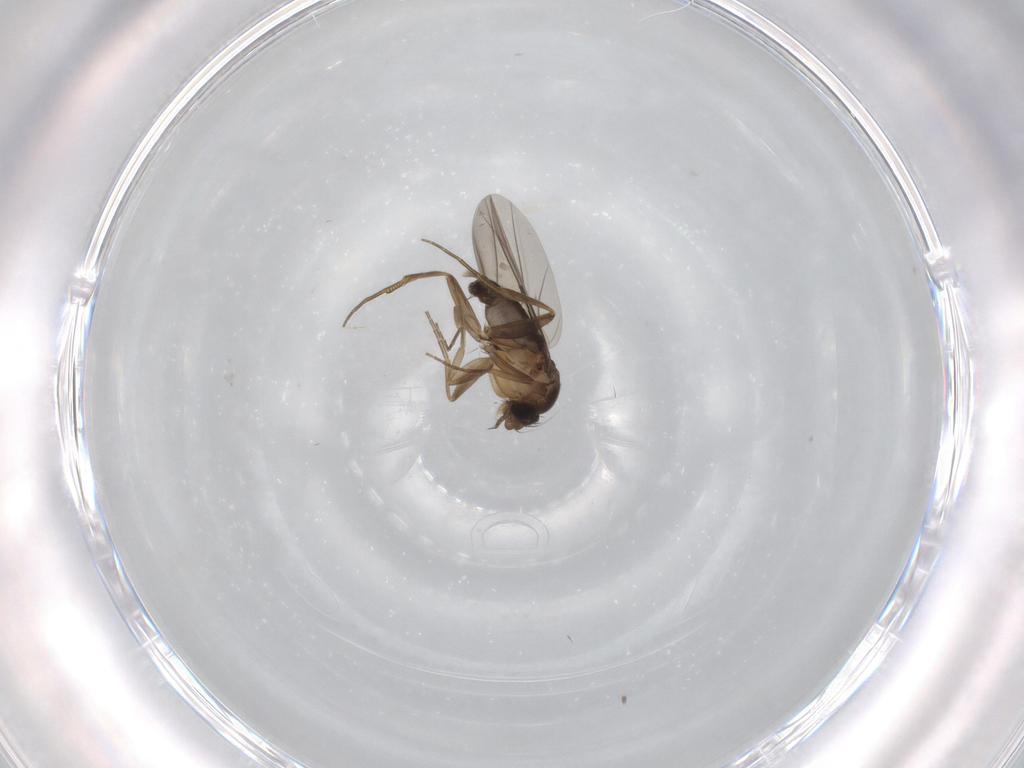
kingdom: Animalia
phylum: Arthropoda
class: Insecta
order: Diptera
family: Phoridae
